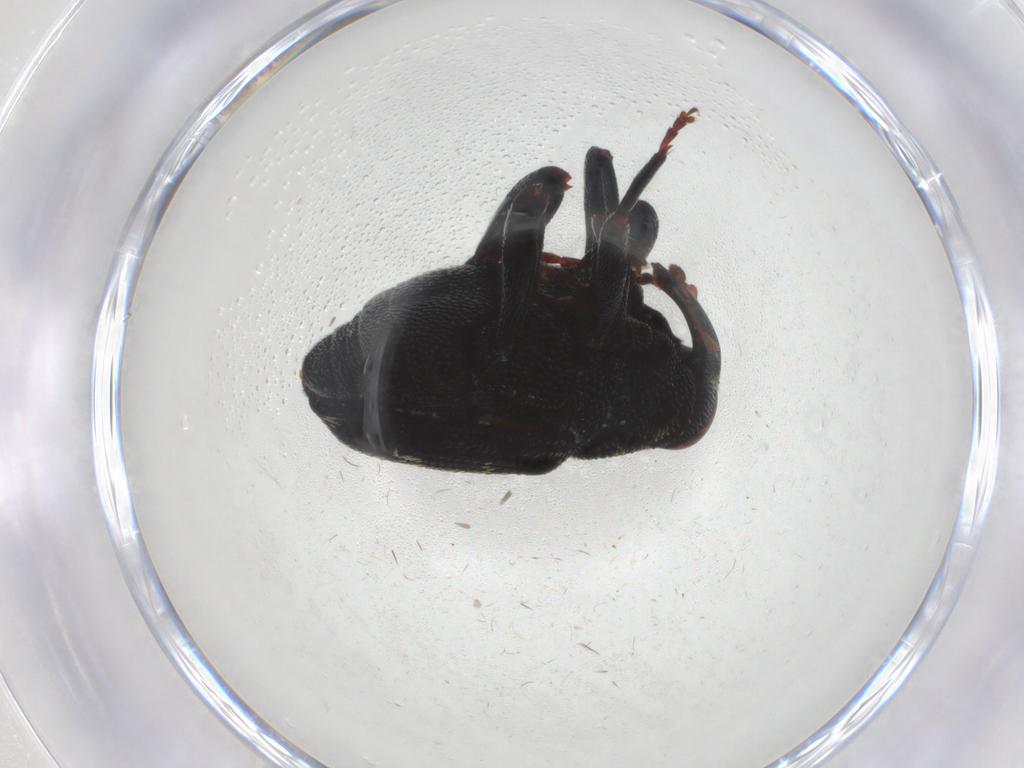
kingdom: Animalia
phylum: Arthropoda
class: Insecta
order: Coleoptera
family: Curculionidae
